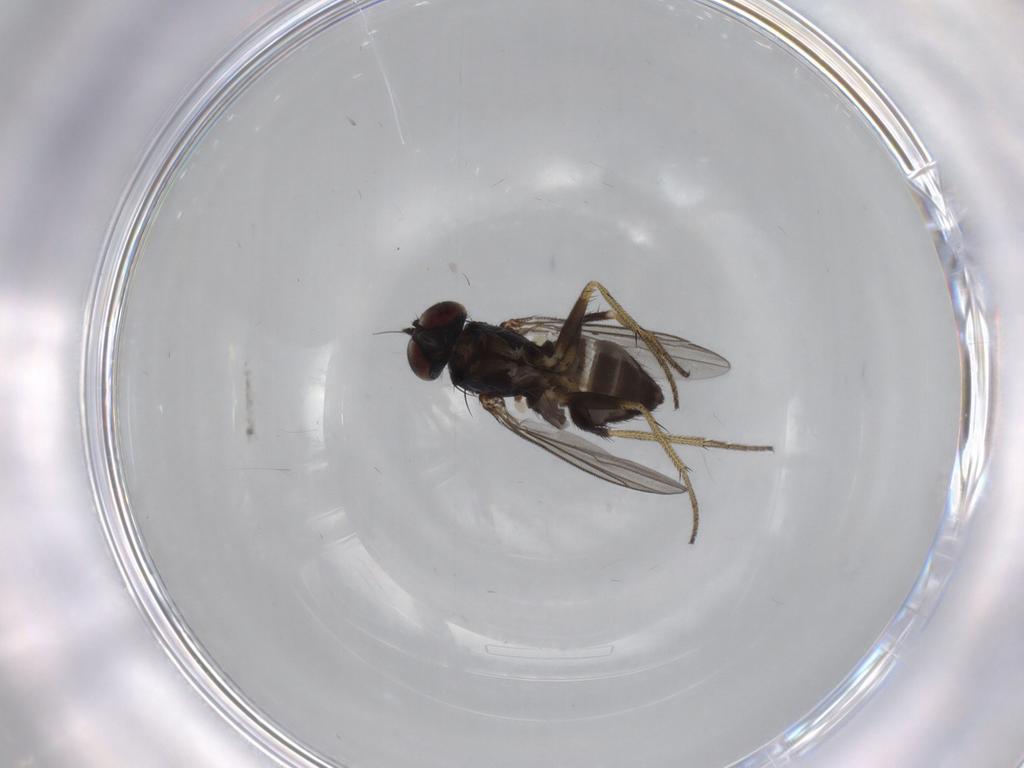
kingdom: Animalia
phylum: Arthropoda
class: Insecta
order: Diptera
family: Dolichopodidae
